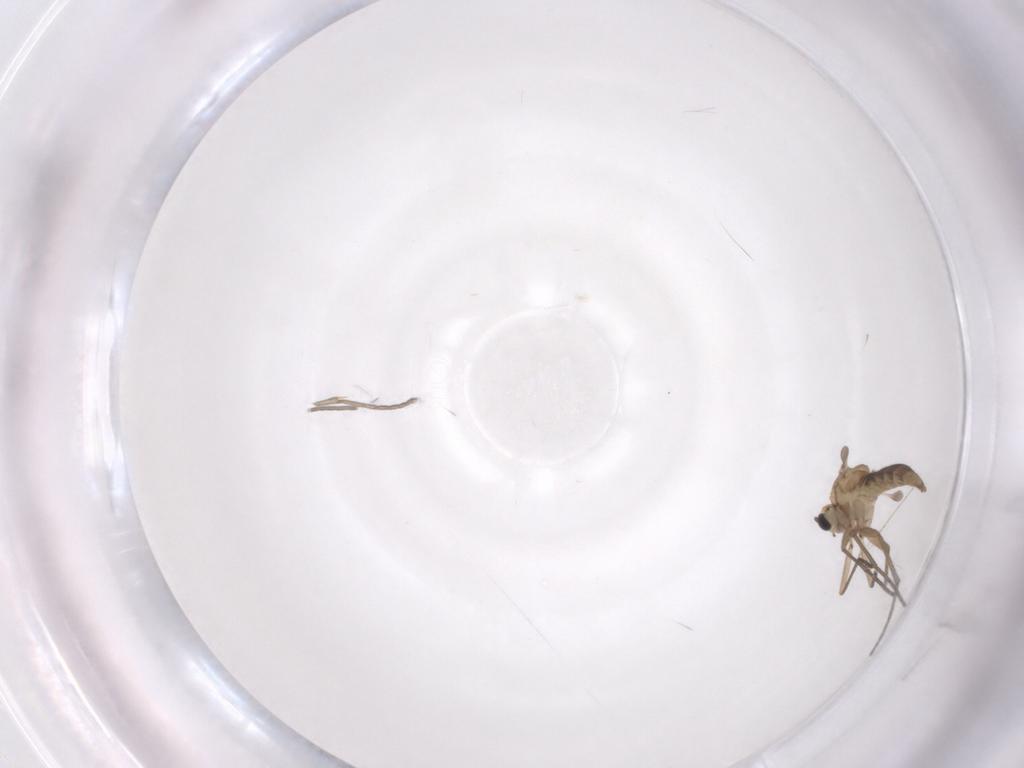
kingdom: Animalia
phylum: Arthropoda
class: Insecta
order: Diptera
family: Sciaridae
